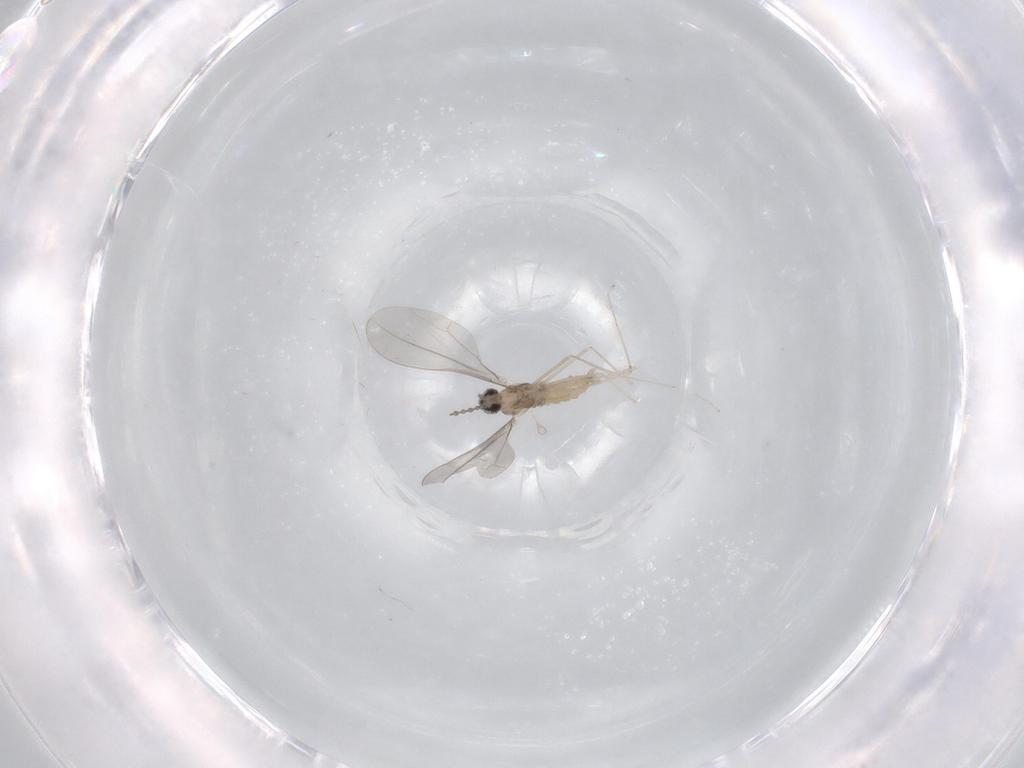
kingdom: Animalia
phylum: Arthropoda
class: Insecta
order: Diptera
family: Cecidomyiidae
